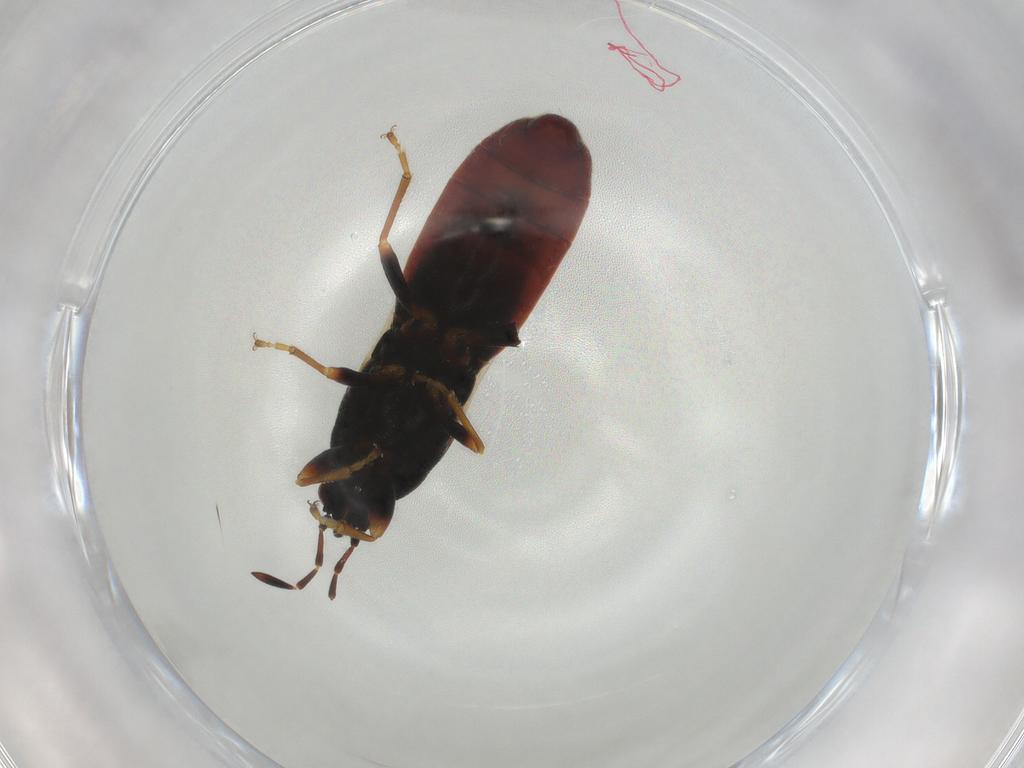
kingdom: Animalia
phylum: Arthropoda
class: Insecta
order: Hemiptera
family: Blissidae
